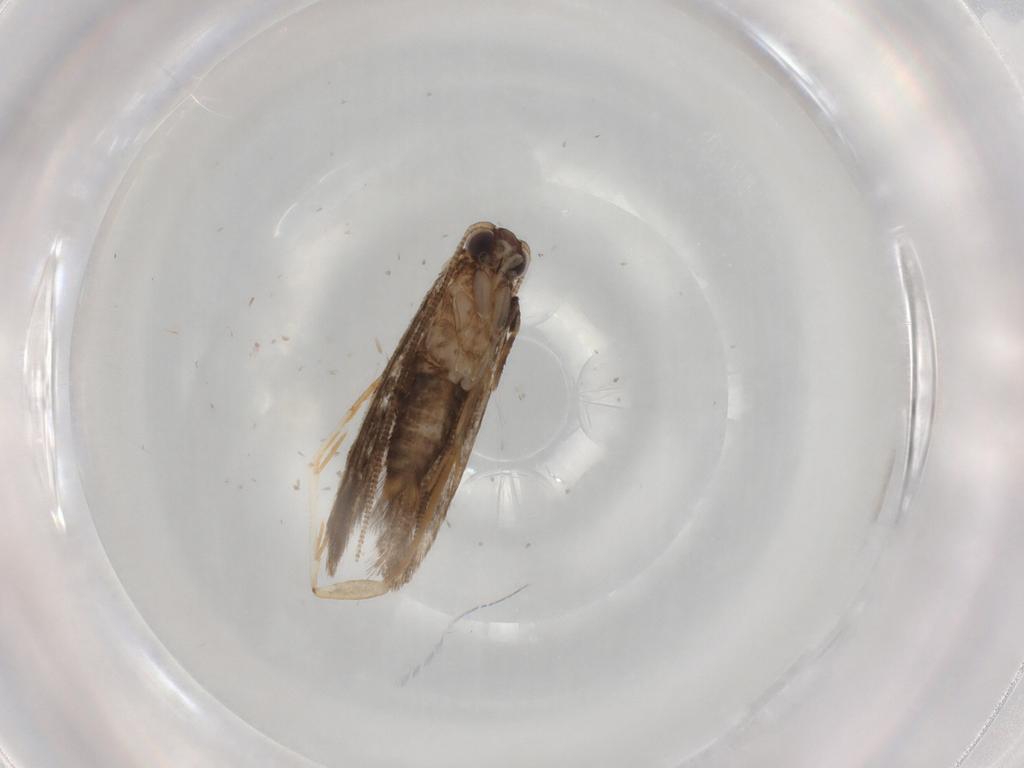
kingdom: Animalia
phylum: Arthropoda
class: Insecta
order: Lepidoptera
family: Tineidae
